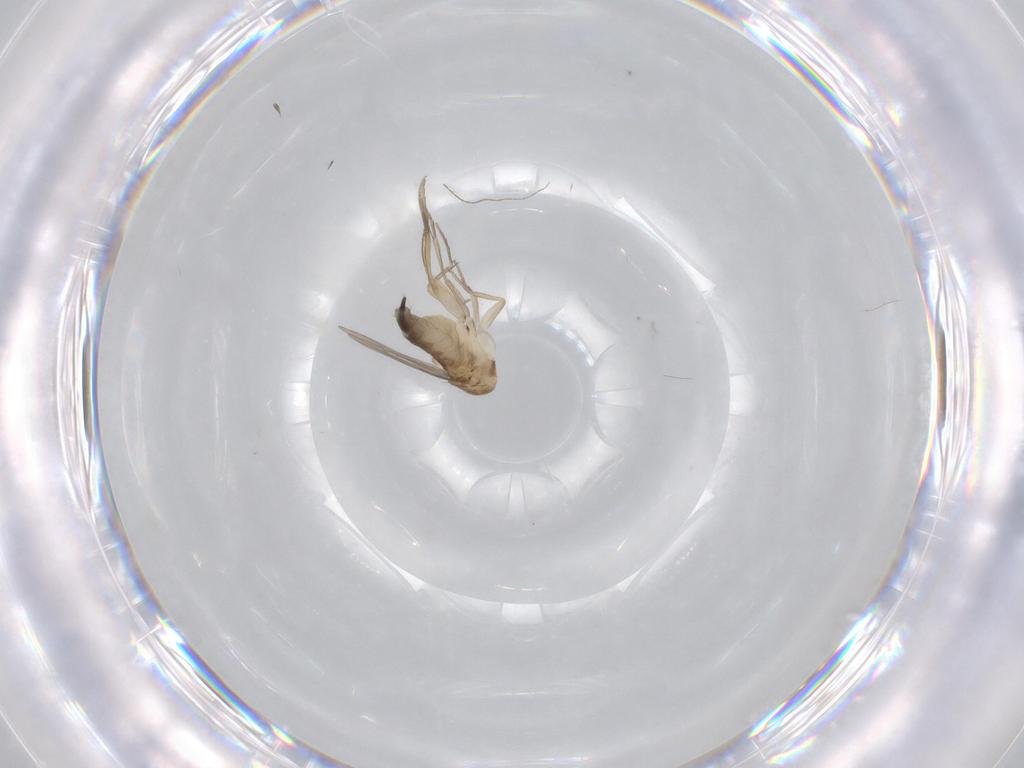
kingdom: Animalia
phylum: Arthropoda
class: Insecta
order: Diptera
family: Phoridae
